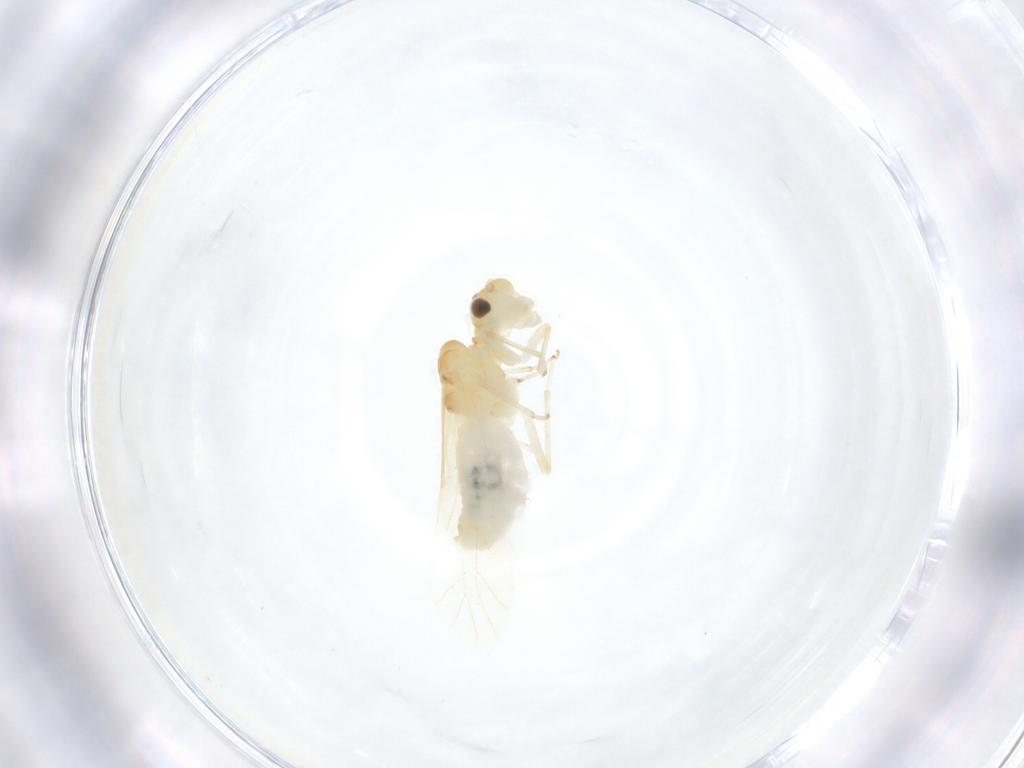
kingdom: Animalia
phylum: Arthropoda
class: Insecta
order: Psocodea
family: Caeciliusidae
